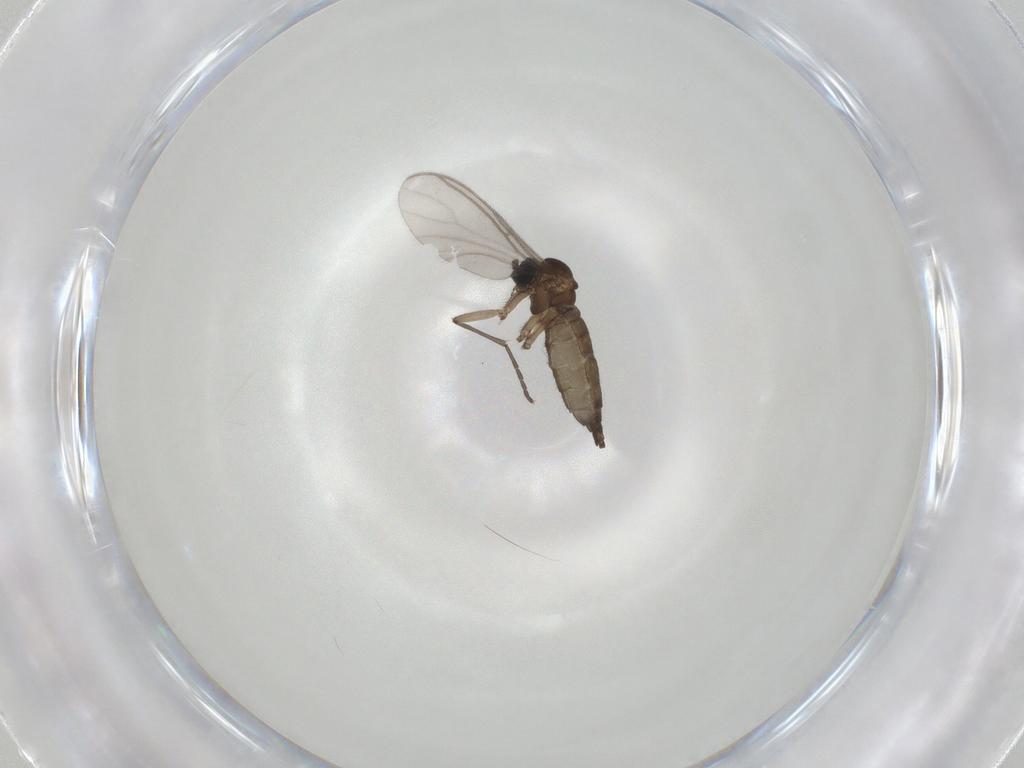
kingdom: Animalia
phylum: Arthropoda
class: Insecta
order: Diptera
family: Sciaridae
